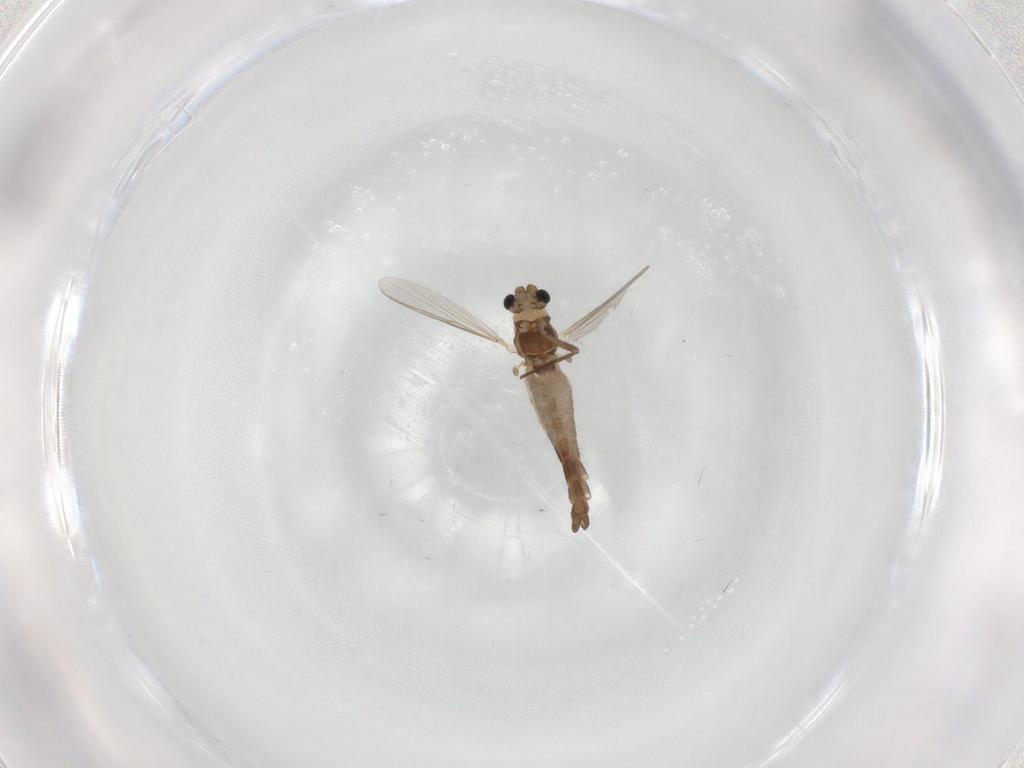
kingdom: Animalia
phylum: Arthropoda
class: Insecta
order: Diptera
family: Chironomidae
